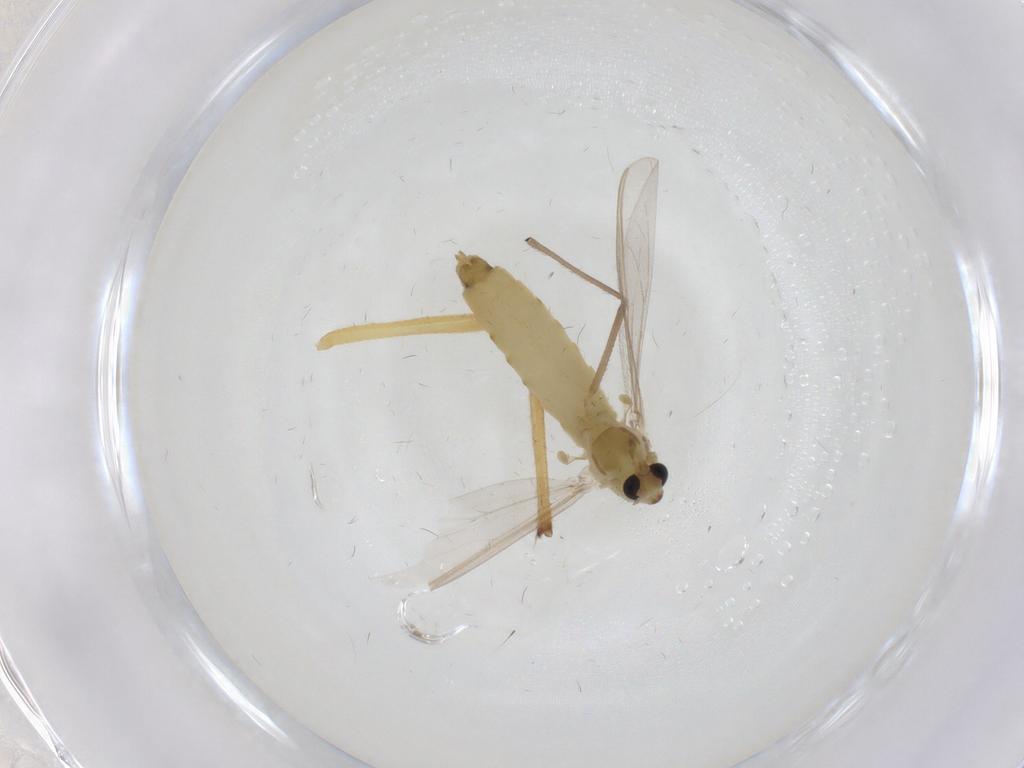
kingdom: Animalia
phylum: Arthropoda
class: Insecta
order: Diptera
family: Chironomidae
